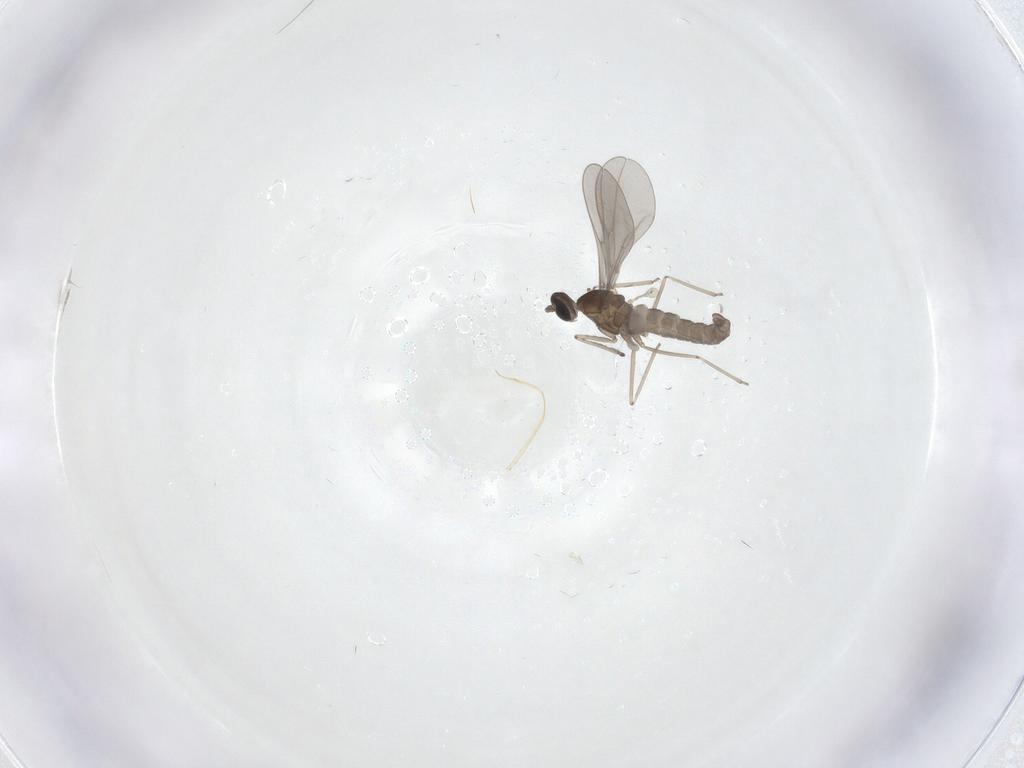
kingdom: Animalia
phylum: Arthropoda
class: Insecta
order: Diptera
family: Cecidomyiidae
